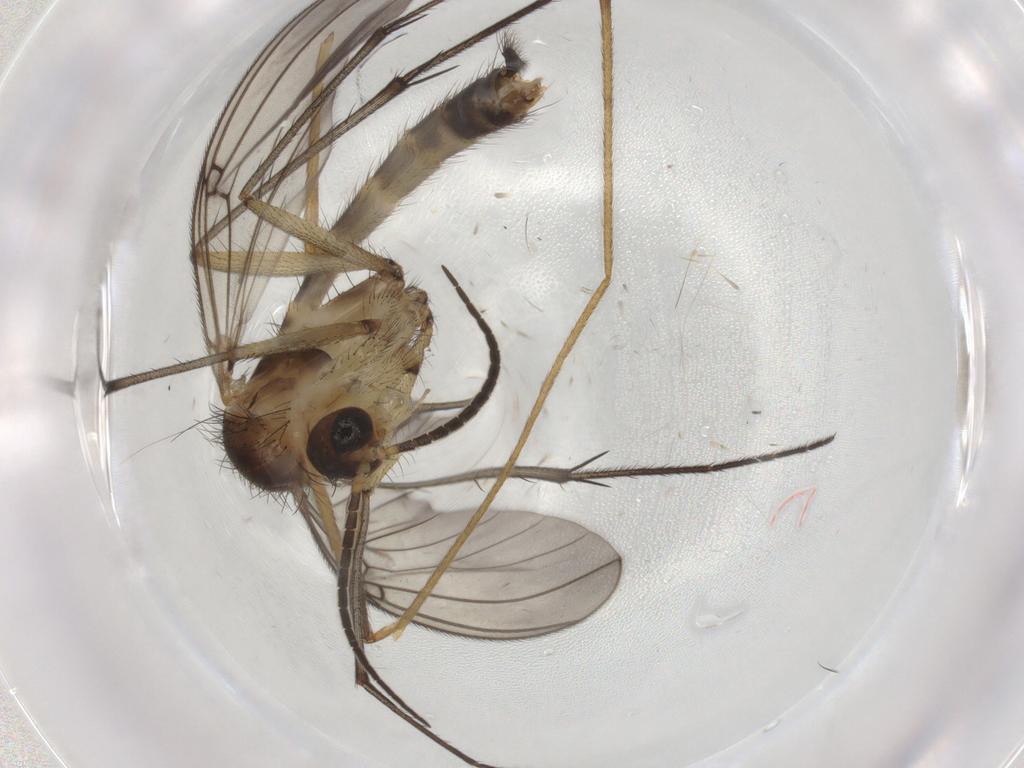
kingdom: Animalia
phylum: Arthropoda
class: Insecta
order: Diptera
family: Limoniidae
